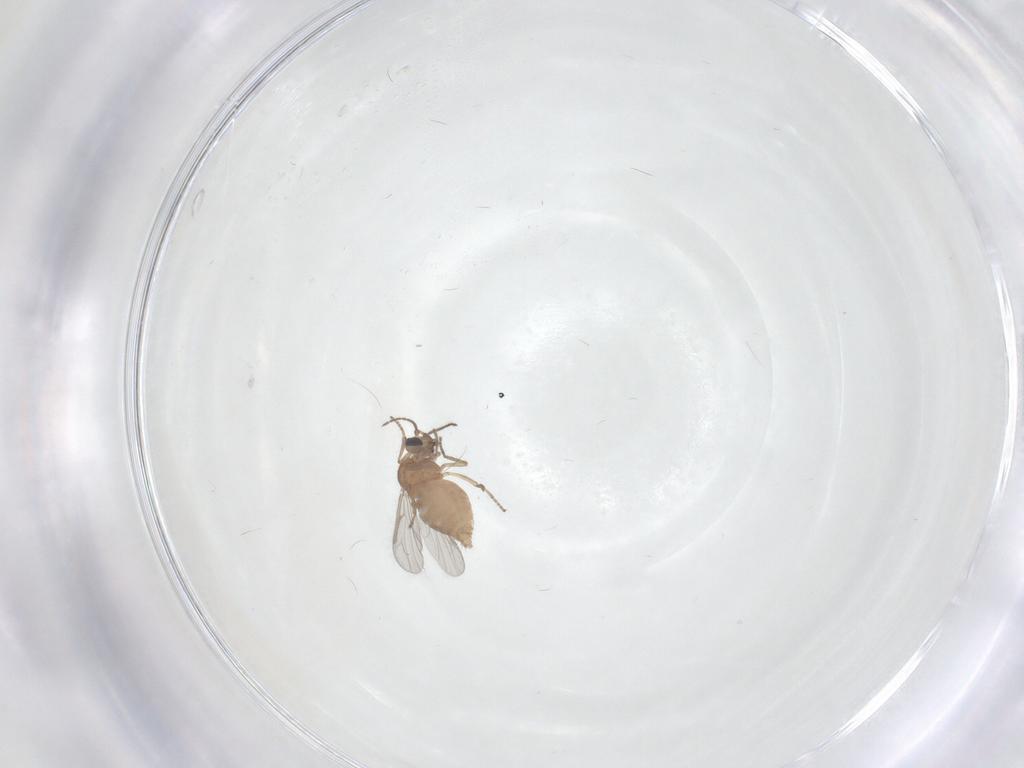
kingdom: Animalia
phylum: Arthropoda
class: Insecta
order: Diptera
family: Ceratopogonidae
